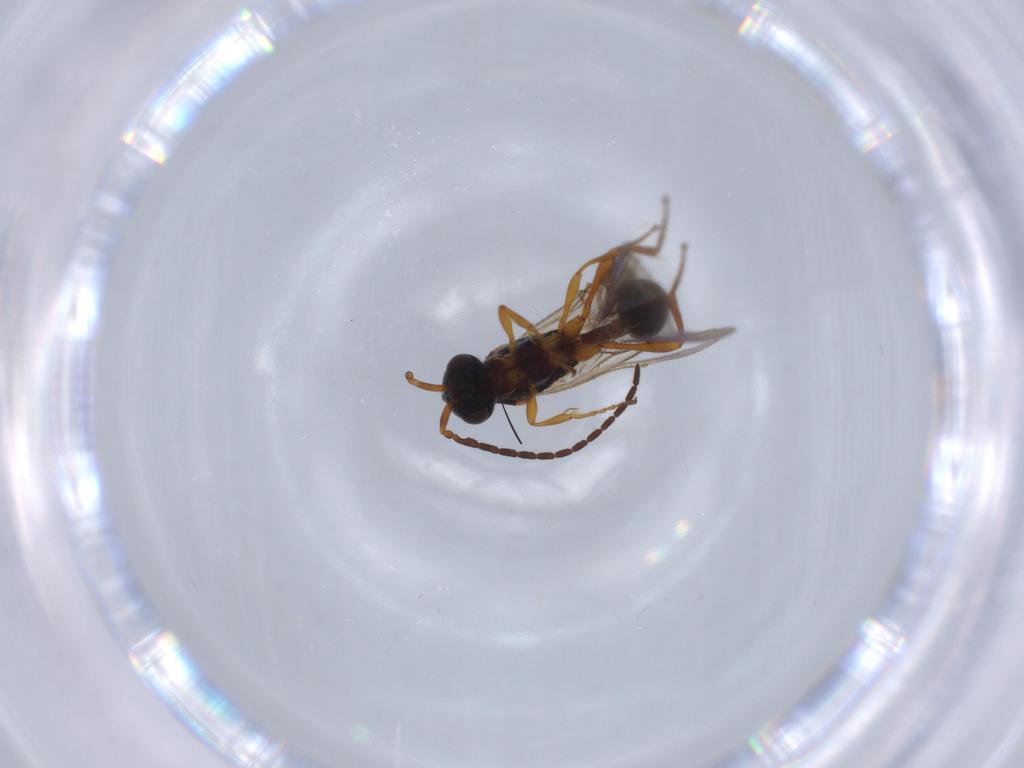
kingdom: Animalia
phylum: Arthropoda
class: Insecta
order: Hymenoptera
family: Diapriidae
